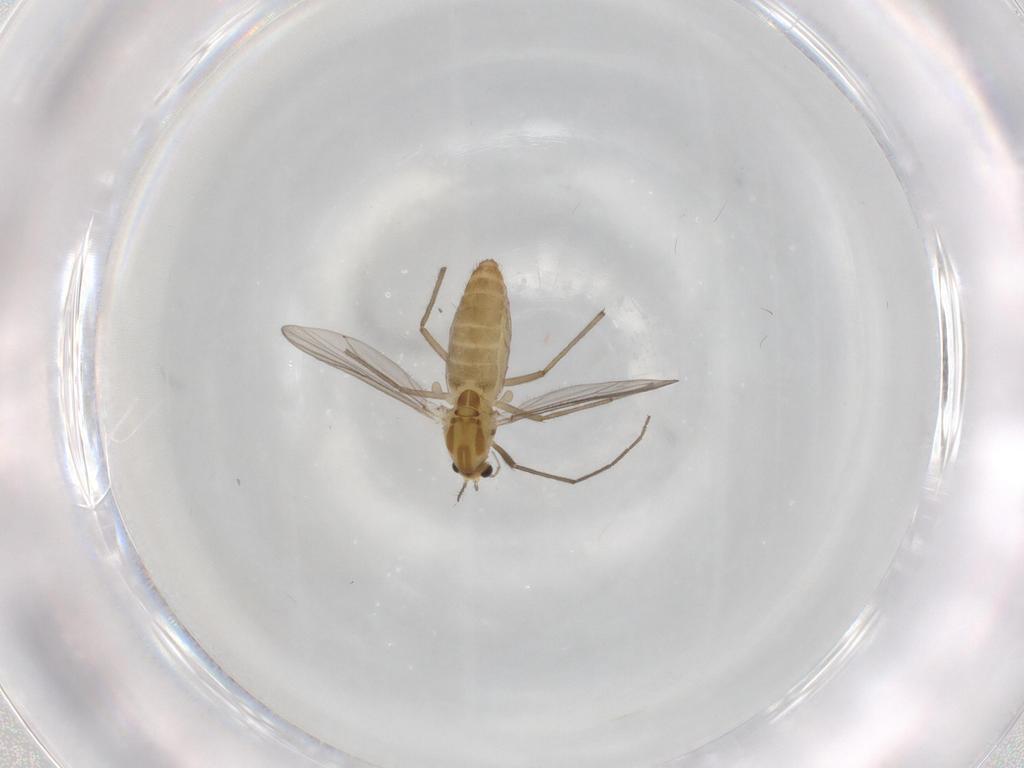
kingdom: Animalia
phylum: Arthropoda
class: Insecta
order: Diptera
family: Chironomidae
